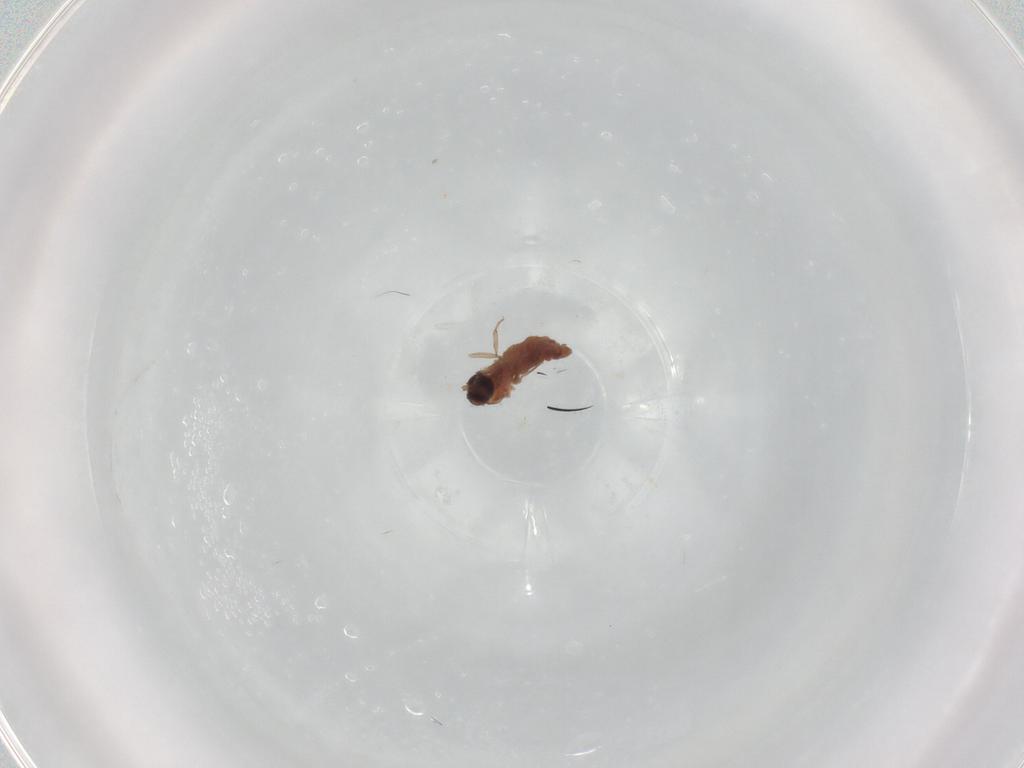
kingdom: Animalia
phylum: Arthropoda
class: Insecta
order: Diptera
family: Psychodidae
